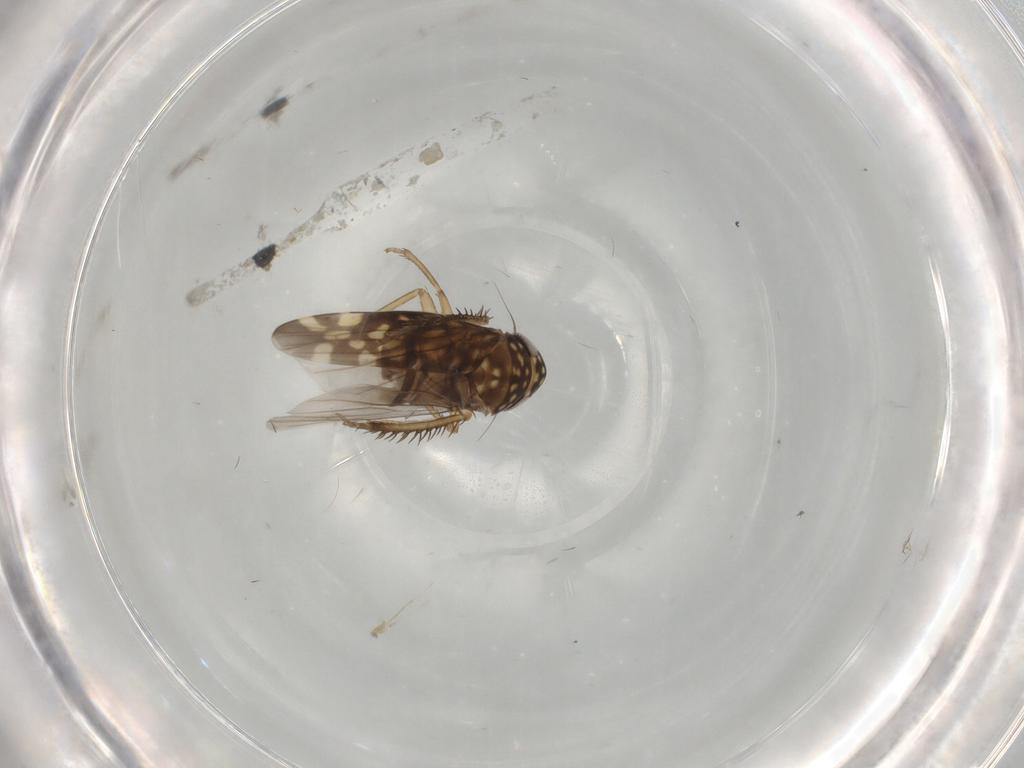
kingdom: Animalia
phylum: Arthropoda
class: Insecta
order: Hemiptera
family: Cicadellidae
